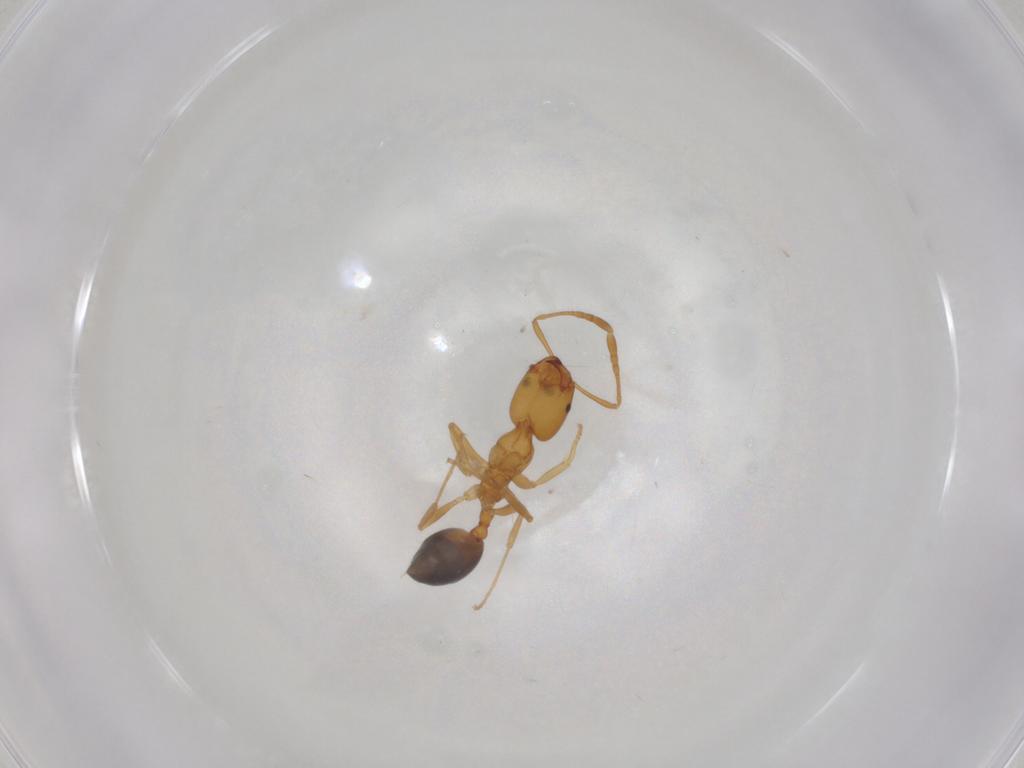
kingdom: Animalia
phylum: Arthropoda
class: Insecta
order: Hymenoptera
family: Formicidae
